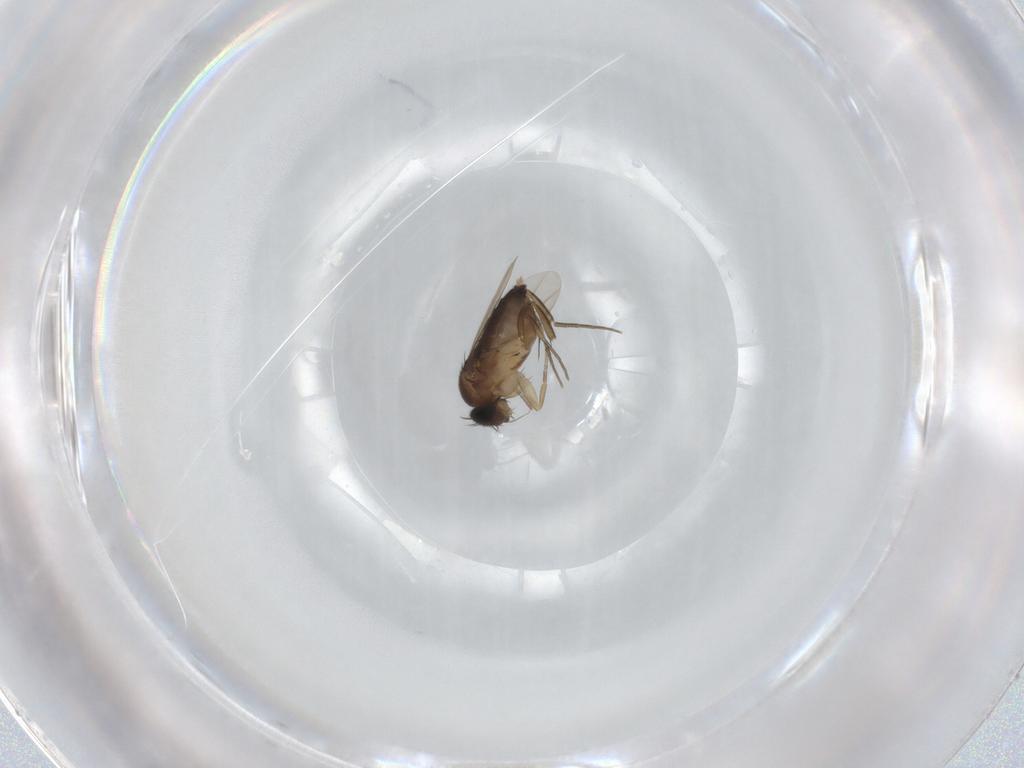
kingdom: Animalia
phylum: Arthropoda
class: Insecta
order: Diptera
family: Phoridae
